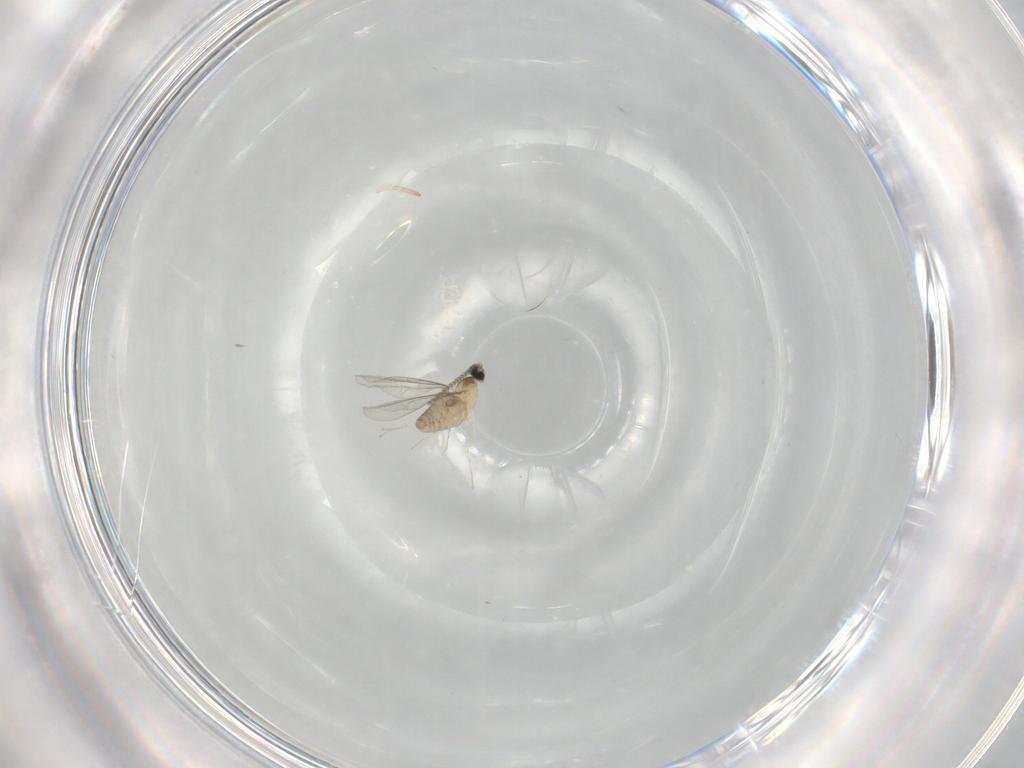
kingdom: Animalia
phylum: Arthropoda
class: Insecta
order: Diptera
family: Cecidomyiidae
